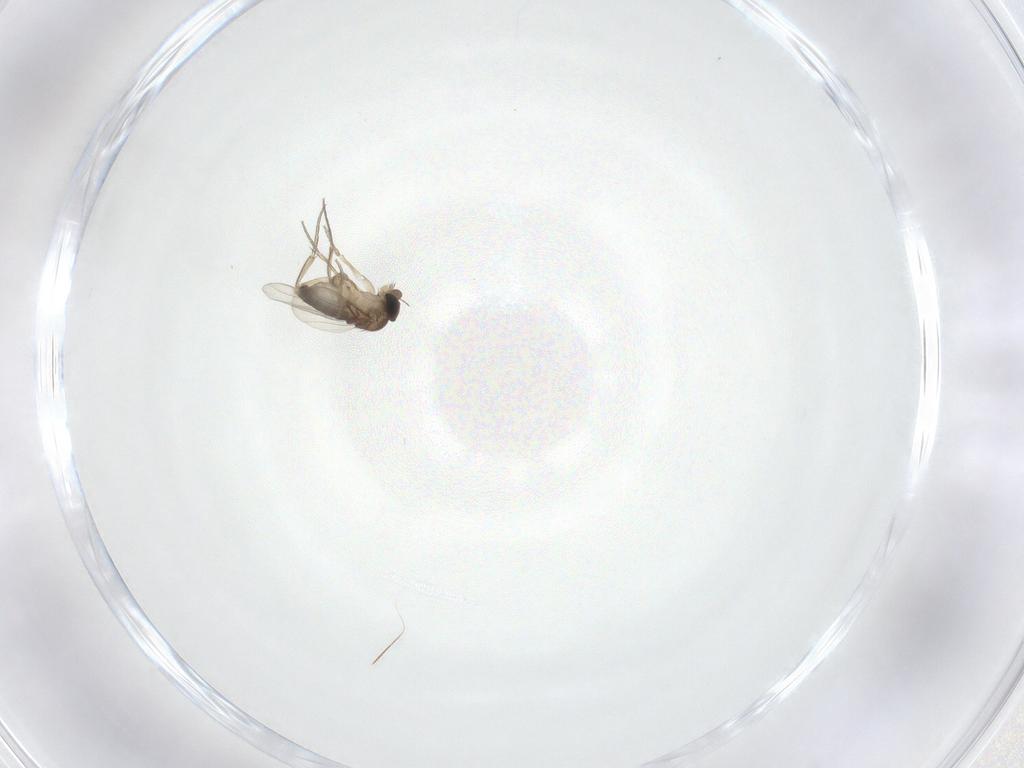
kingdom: Animalia
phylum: Arthropoda
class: Insecta
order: Diptera
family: Phoridae
